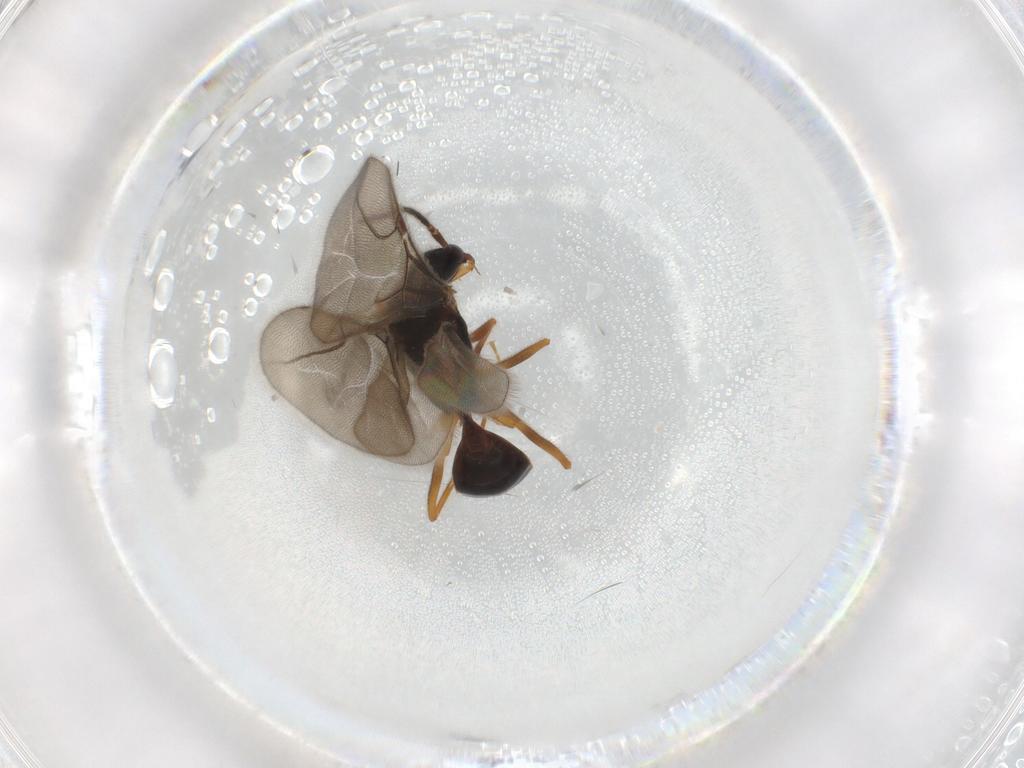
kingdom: Animalia
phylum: Arthropoda
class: Insecta
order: Hymenoptera
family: Bethylidae
